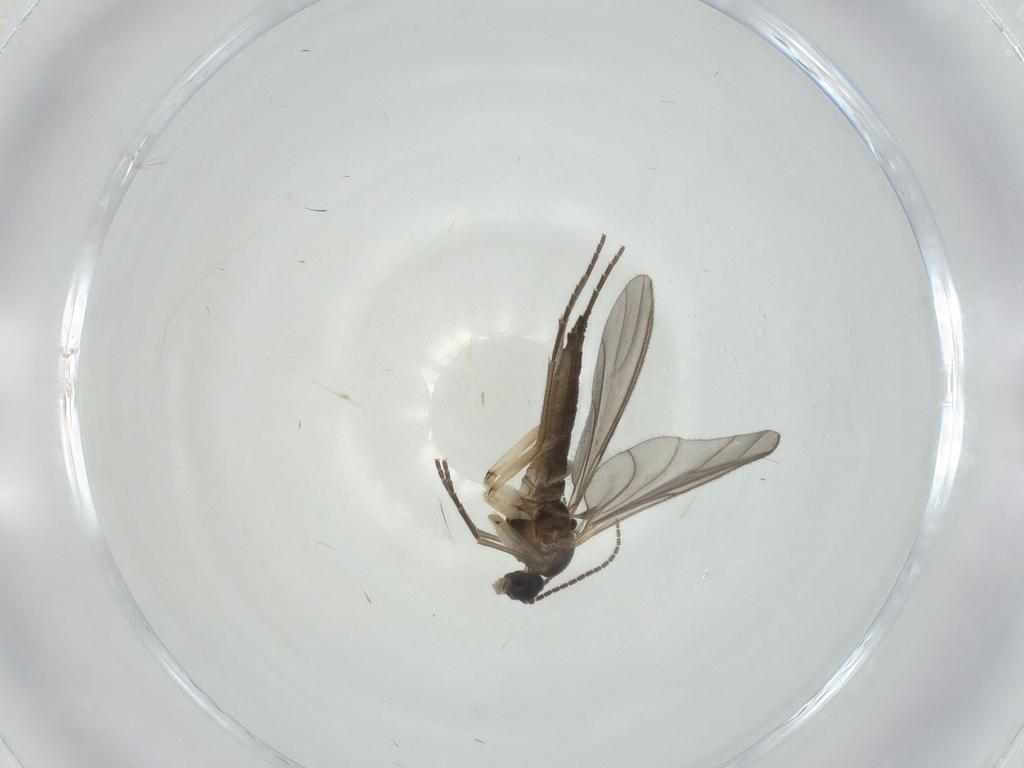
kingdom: Animalia
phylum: Arthropoda
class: Insecta
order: Diptera
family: Sciaridae
